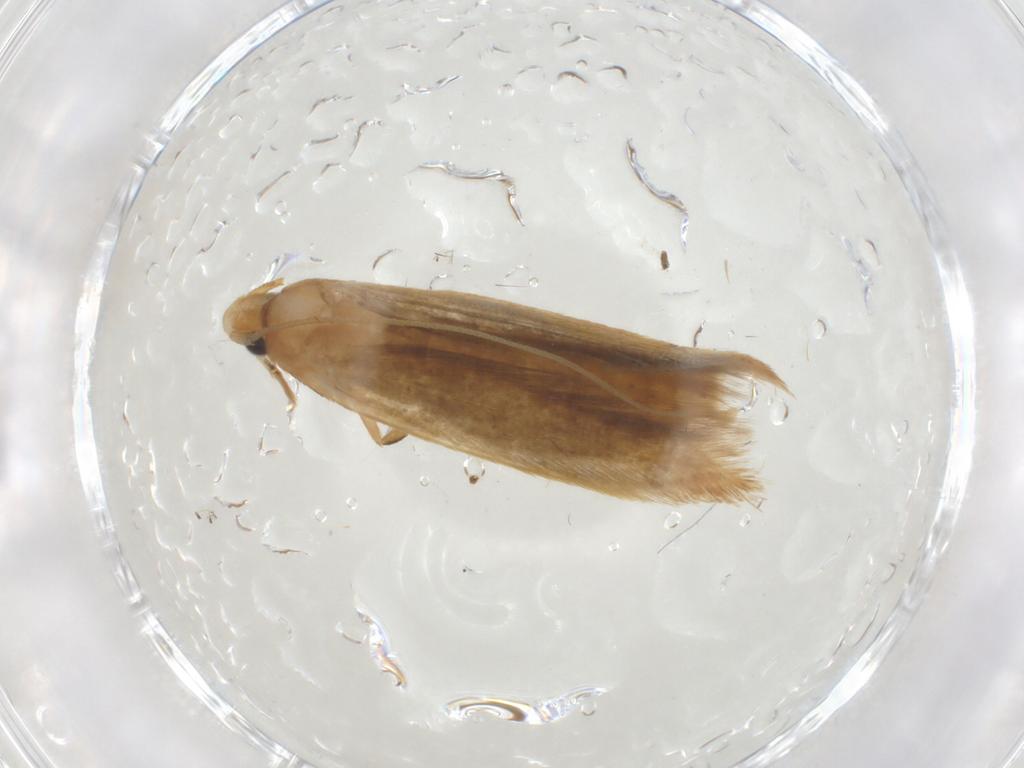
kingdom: Animalia
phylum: Arthropoda
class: Insecta
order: Lepidoptera
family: Tineidae
